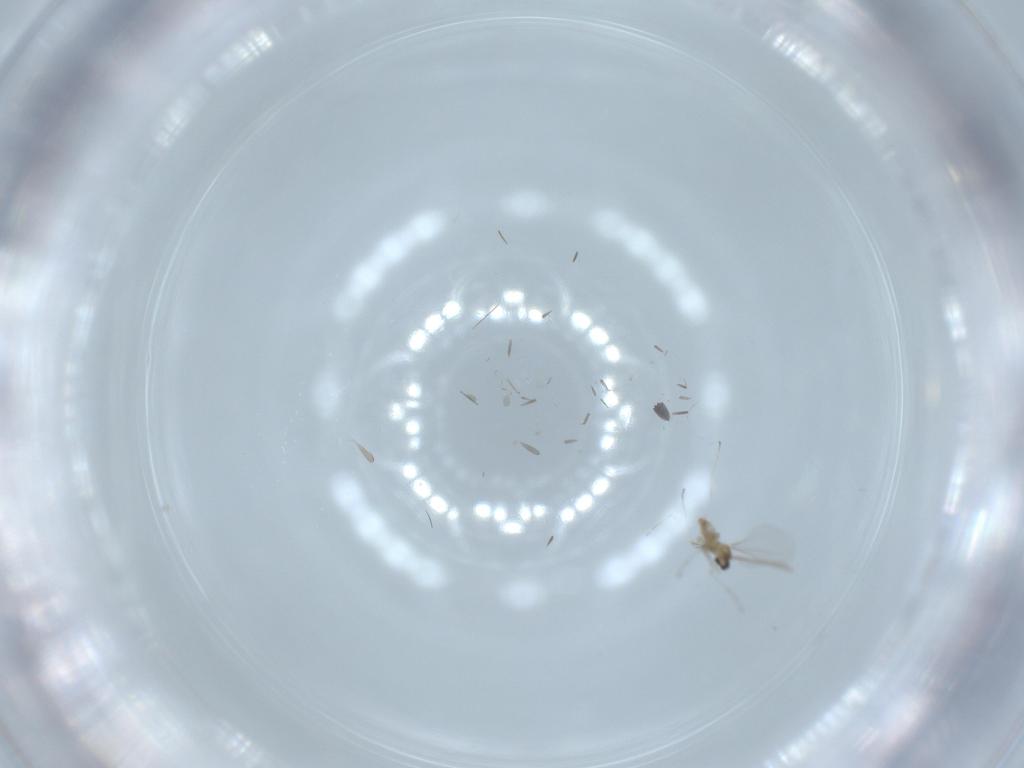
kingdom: Animalia
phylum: Arthropoda
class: Insecta
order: Diptera
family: Cecidomyiidae
